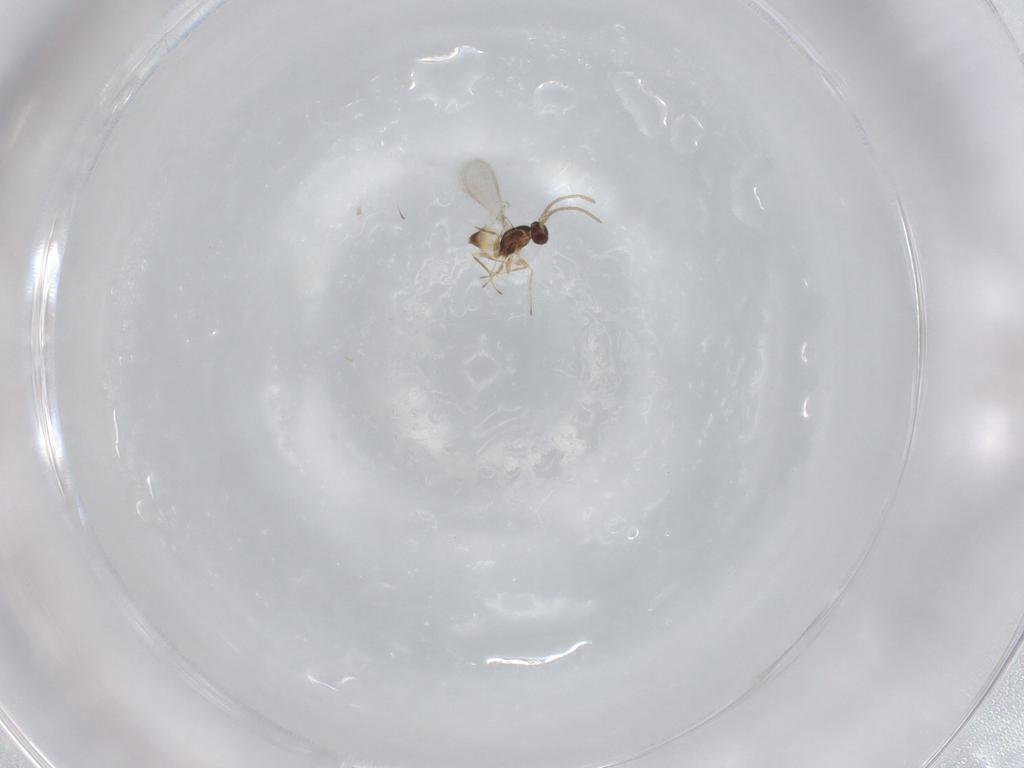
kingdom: Animalia
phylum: Arthropoda
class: Insecta
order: Hymenoptera
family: Mymaridae
